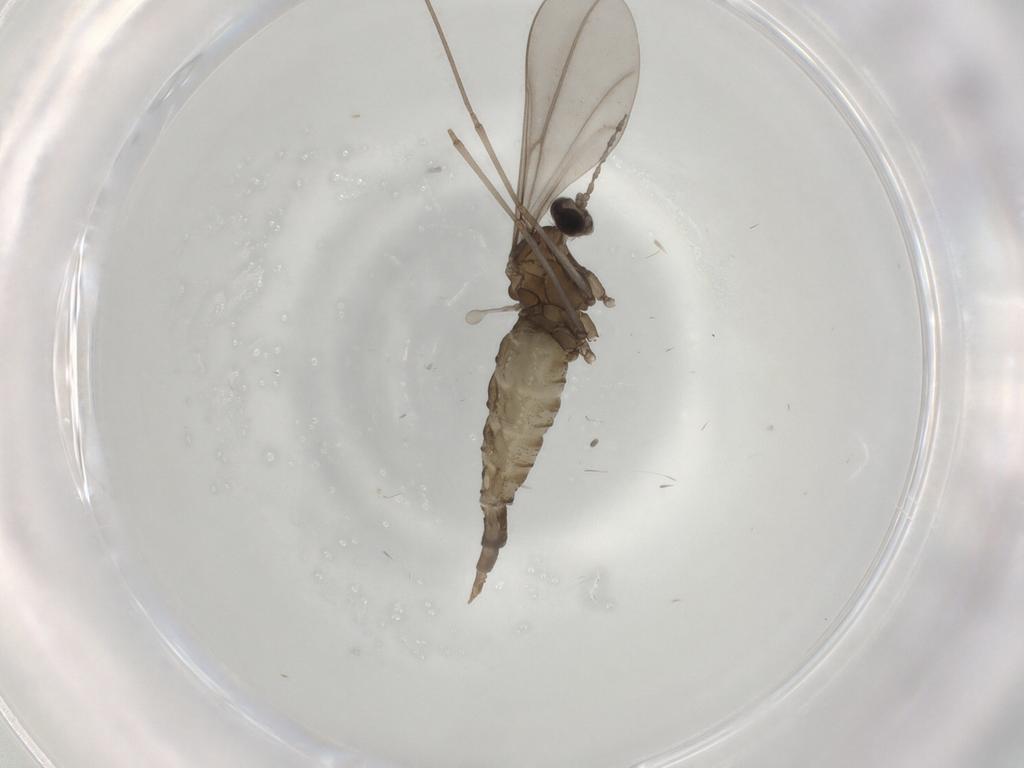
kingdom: Animalia
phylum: Arthropoda
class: Insecta
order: Diptera
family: Cecidomyiidae
